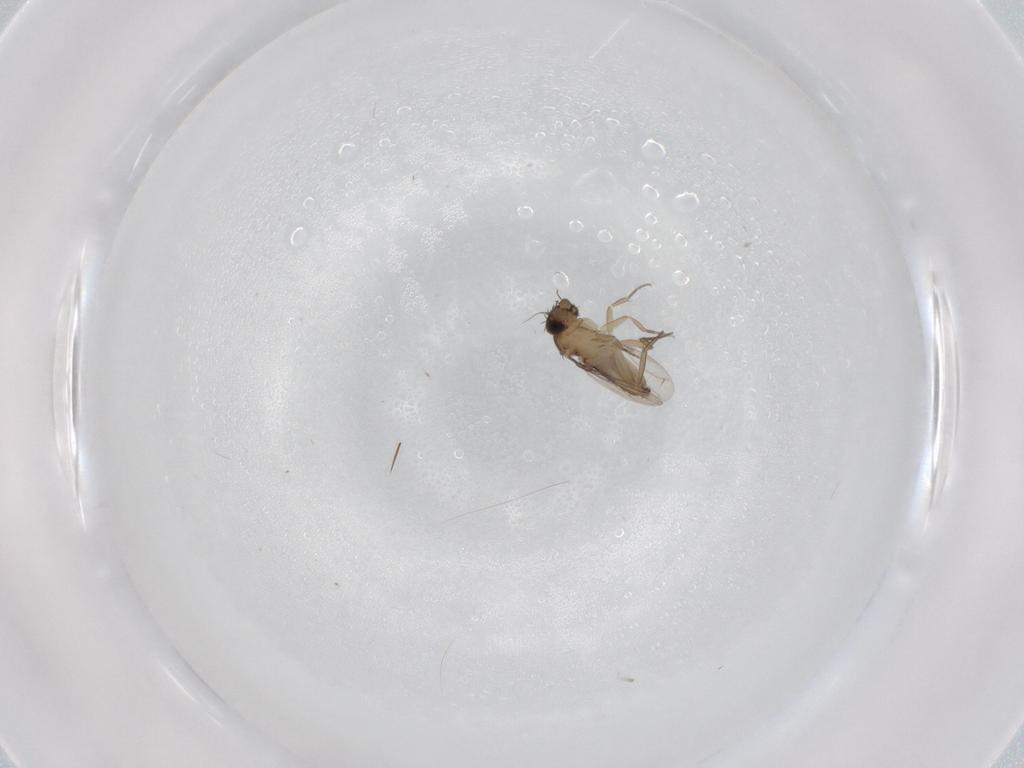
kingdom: Animalia
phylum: Arthropoda
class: Insecta
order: Diptera
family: Phoridae
